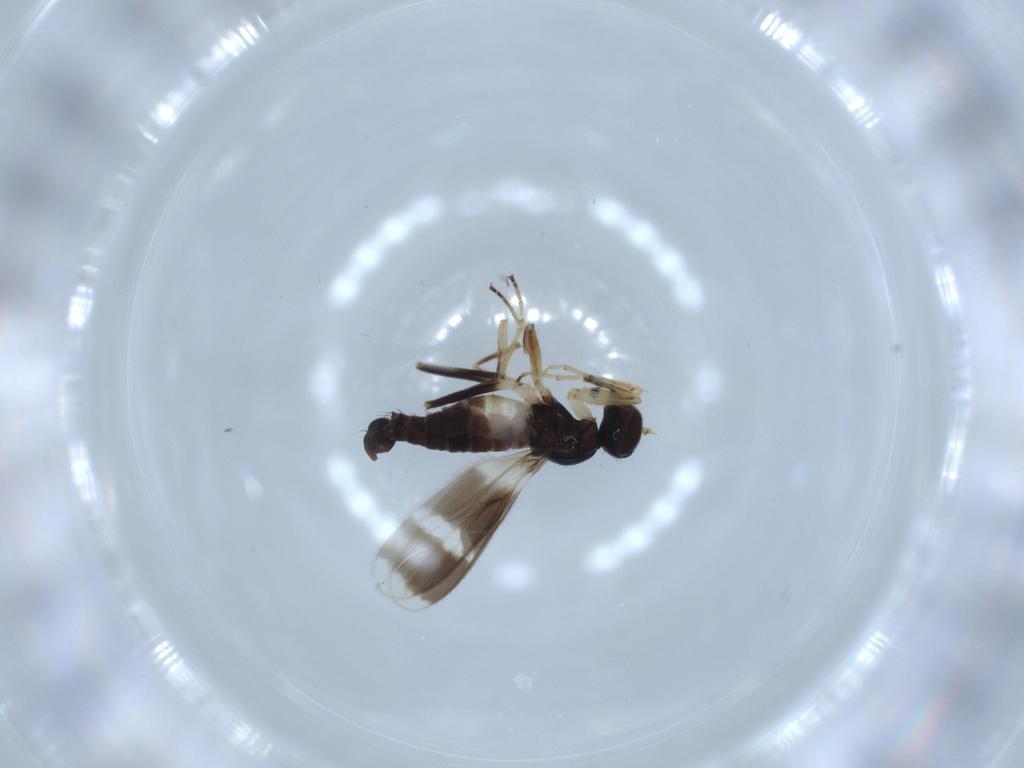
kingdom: Animalia
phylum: Arthropoda
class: Insecta
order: Diptera
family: Hybotidae
